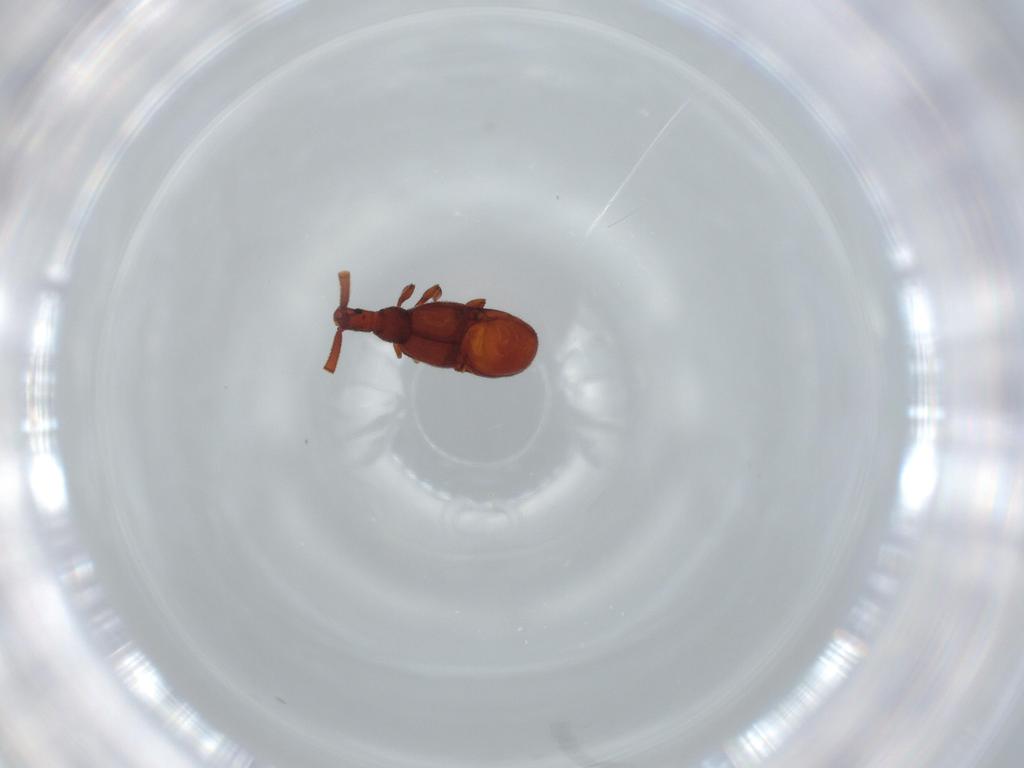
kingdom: Animalia
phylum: Arthropoda
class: Insecta
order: Coleoptera
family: Staphylinidae
